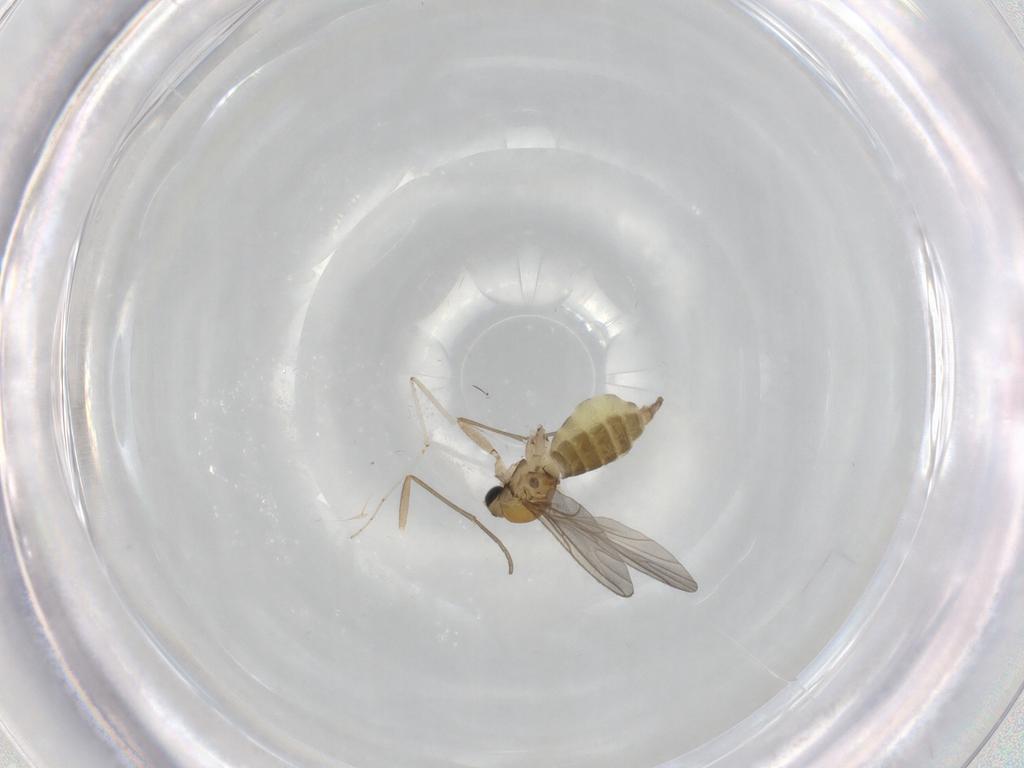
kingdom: Animalia
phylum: Arthropoda
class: Insecta
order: Diptera
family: Sciaridae
